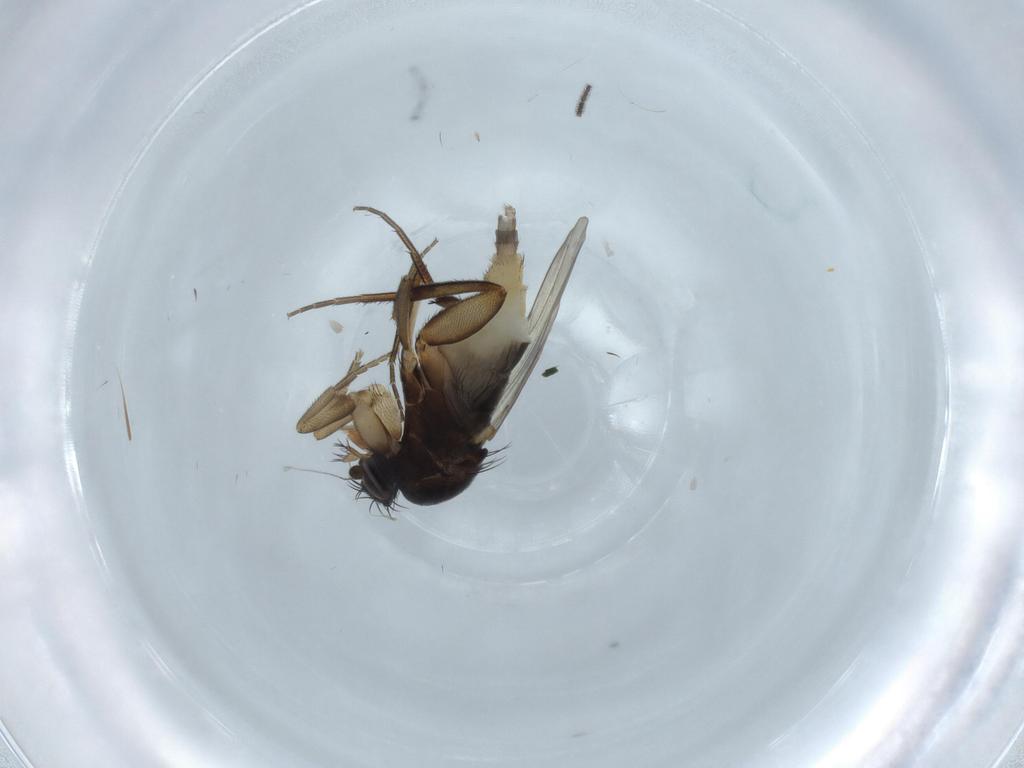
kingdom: Animalia
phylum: Arthropoda
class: Insecta
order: Diptera
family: Phoridae
